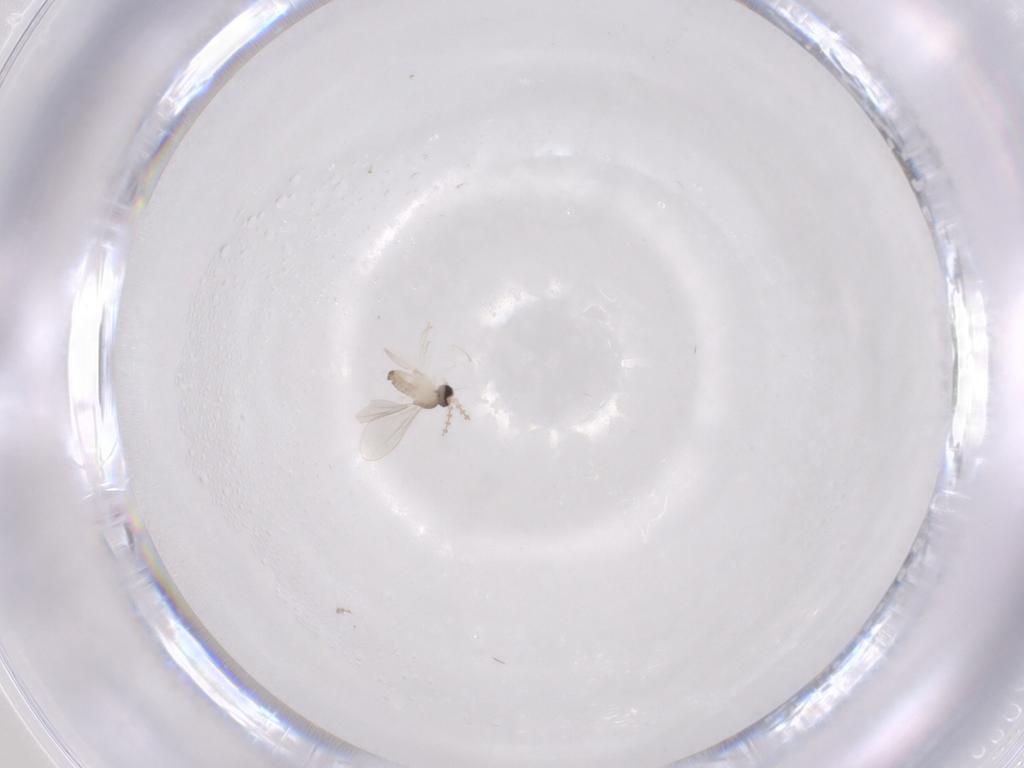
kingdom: Animalia
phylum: Arthropoda
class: Insecta
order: Diptera
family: Cecidomyiidae
